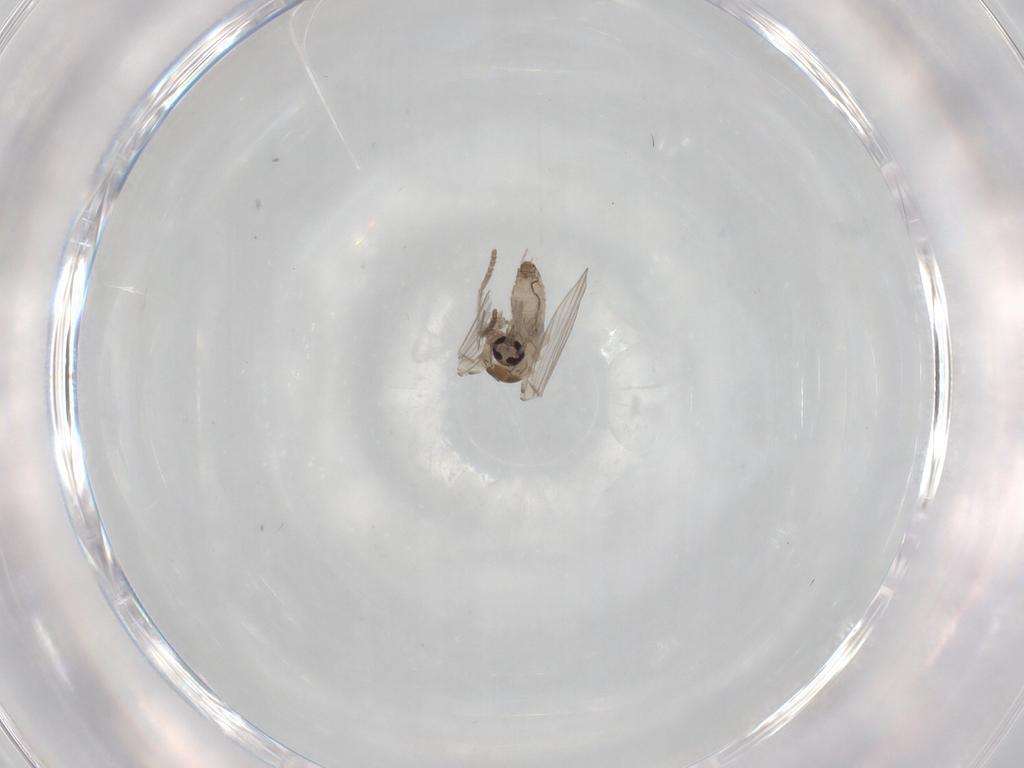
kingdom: Animalia
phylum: Arthropoda
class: Insecta
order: Diptera
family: Psychodidae
